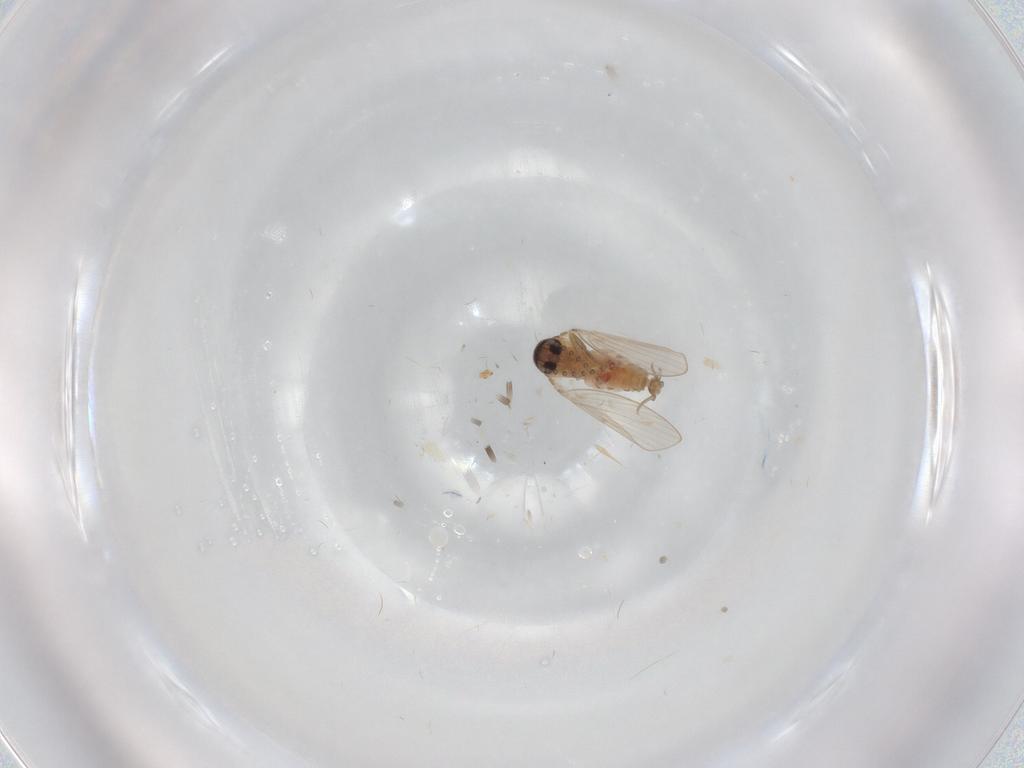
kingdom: Animalia
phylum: Arthropoda
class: Insecta
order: Diptera
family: Psychodidae
